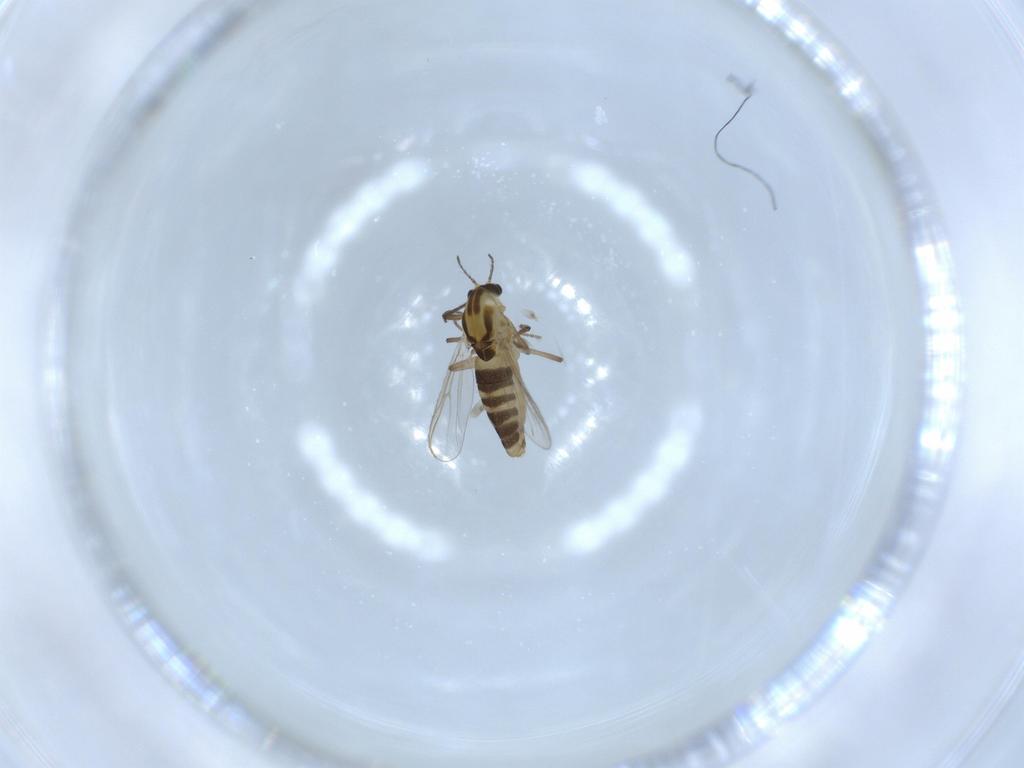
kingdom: Animalia
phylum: Arthropoda
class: Insecta
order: Diptera
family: Chironomidae
